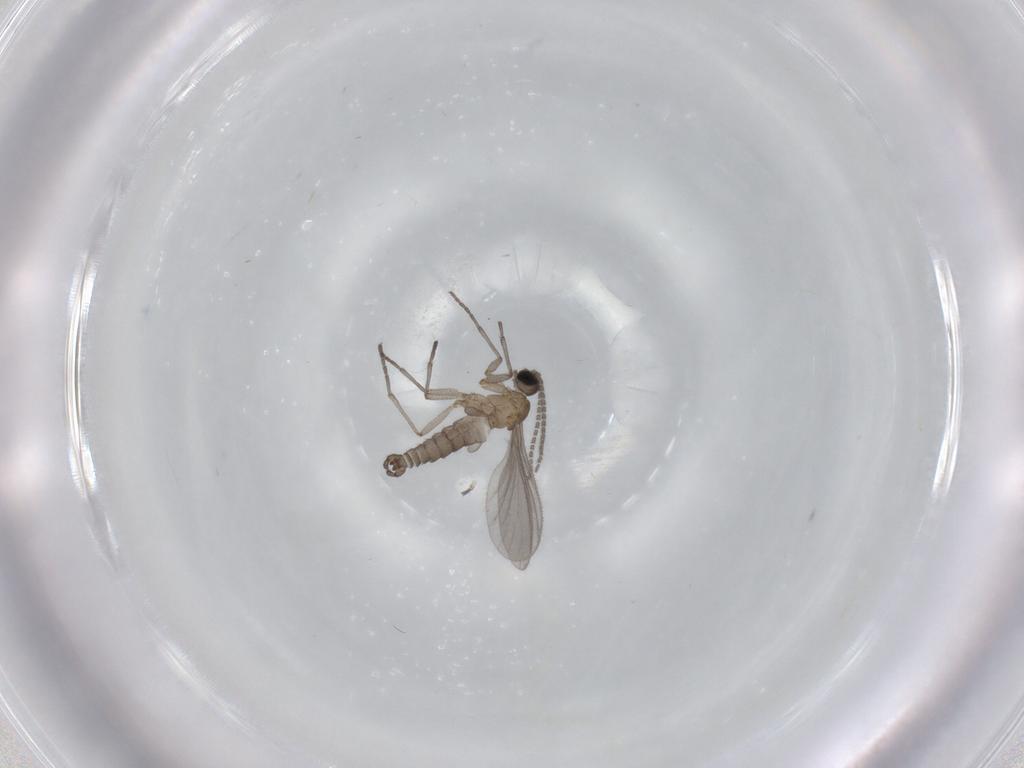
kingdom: Animalia
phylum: Arthropoda
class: Insecta
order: Diptera
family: Sciaridae
